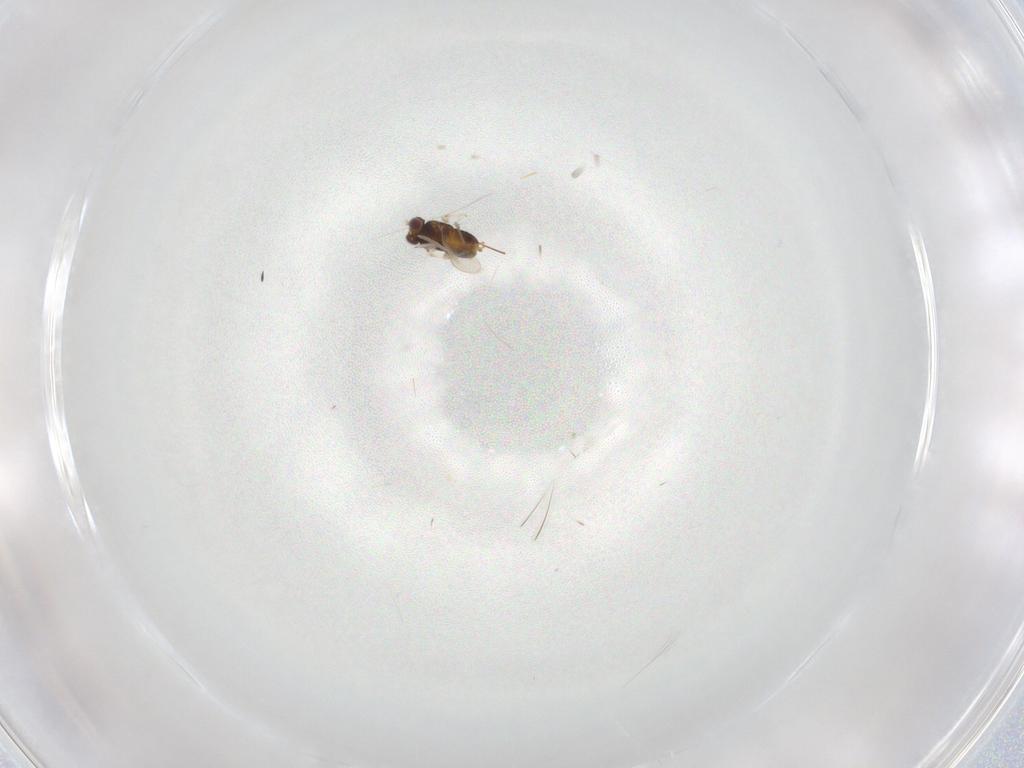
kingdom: Animalia
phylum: Arthropoda
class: Insecta
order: Hymenoptera
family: Aphelinidae
